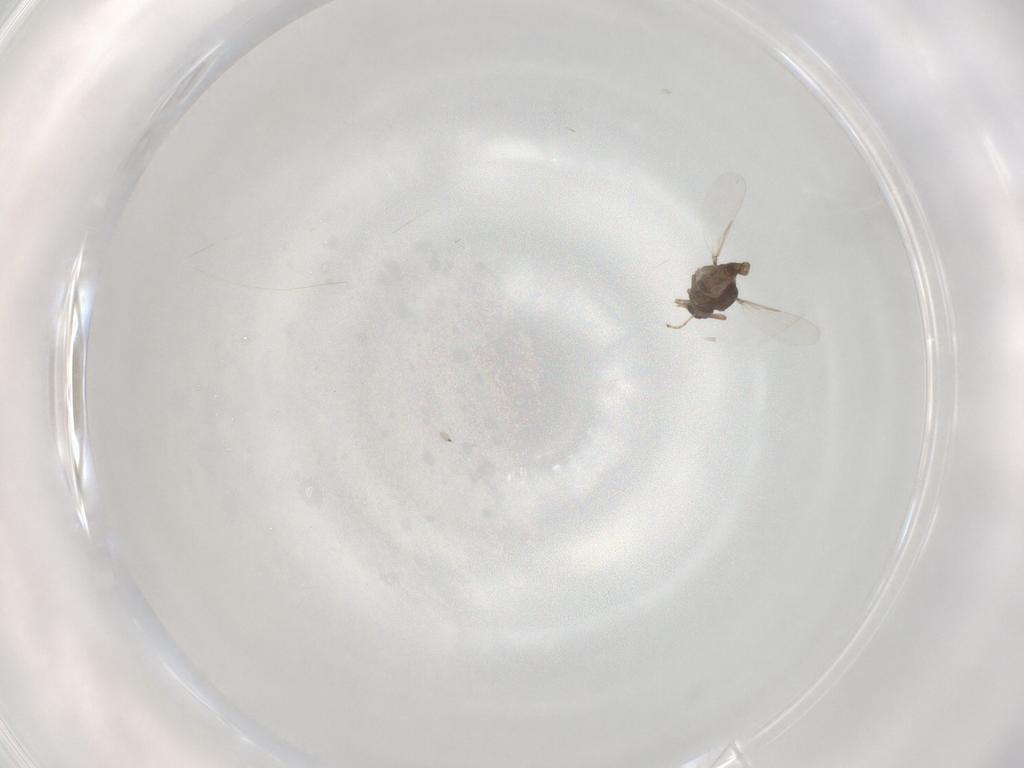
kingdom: Animalia
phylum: Arthropoda
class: Insecta
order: Diptera
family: Ceratopogonidae
